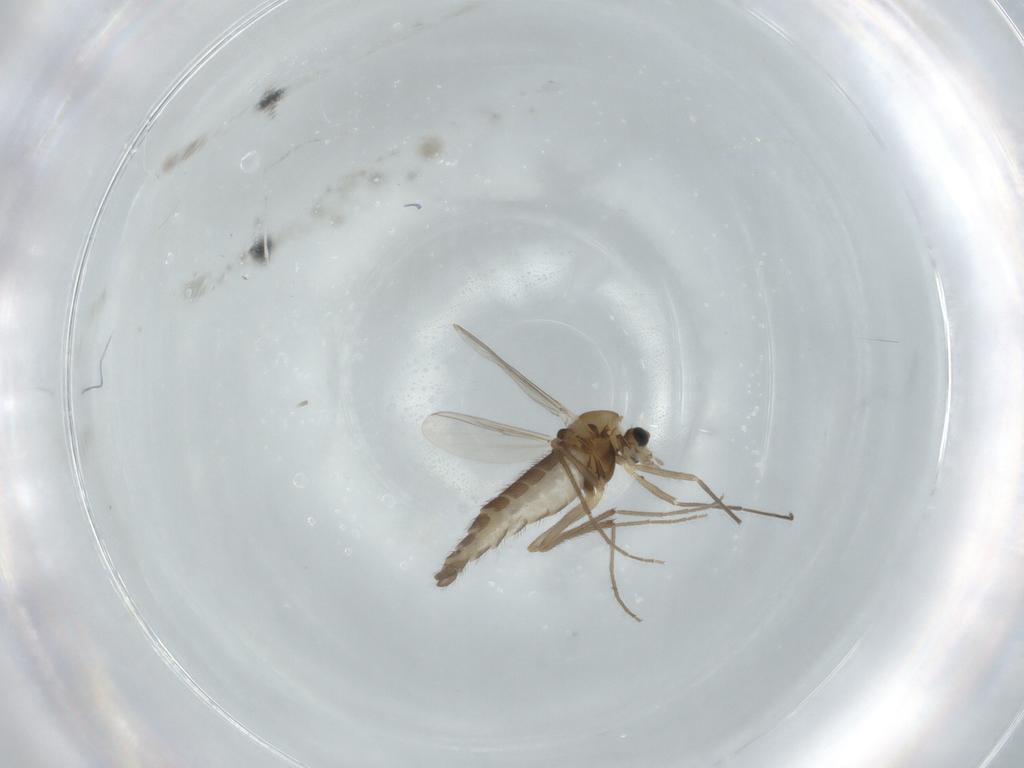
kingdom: Animalia
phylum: Arthropoda
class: Insecta
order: Diptera
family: Chironomidae
